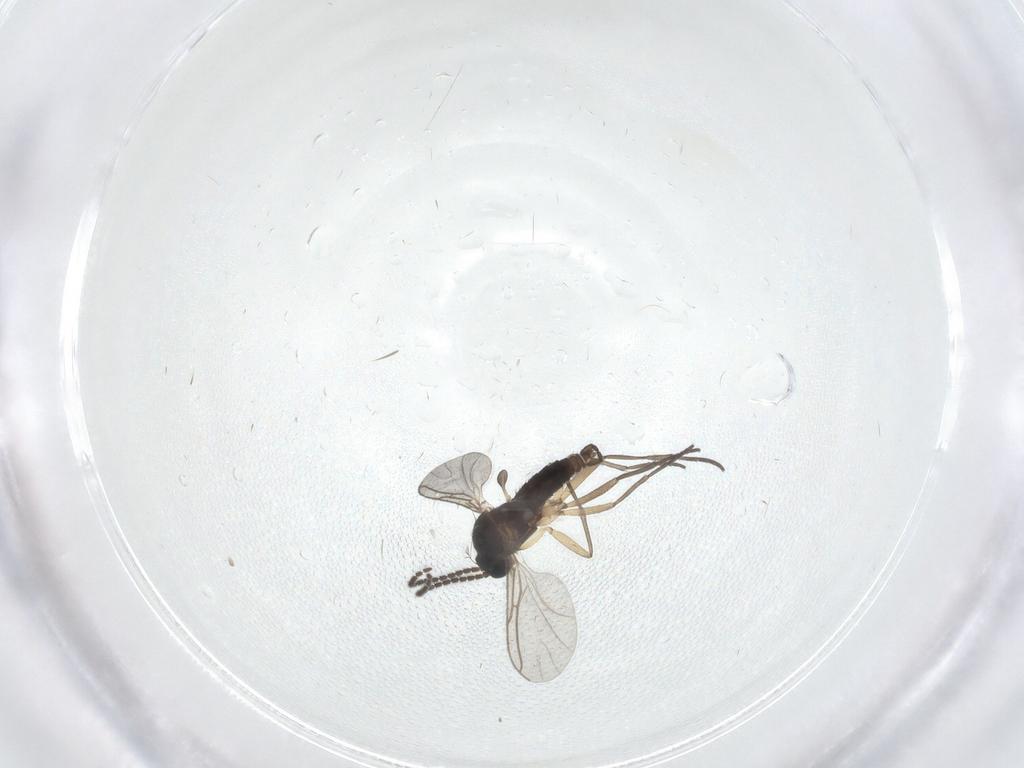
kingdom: Animalia
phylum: Arthropoda
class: Insecta
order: Diptera
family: Sciaridae
